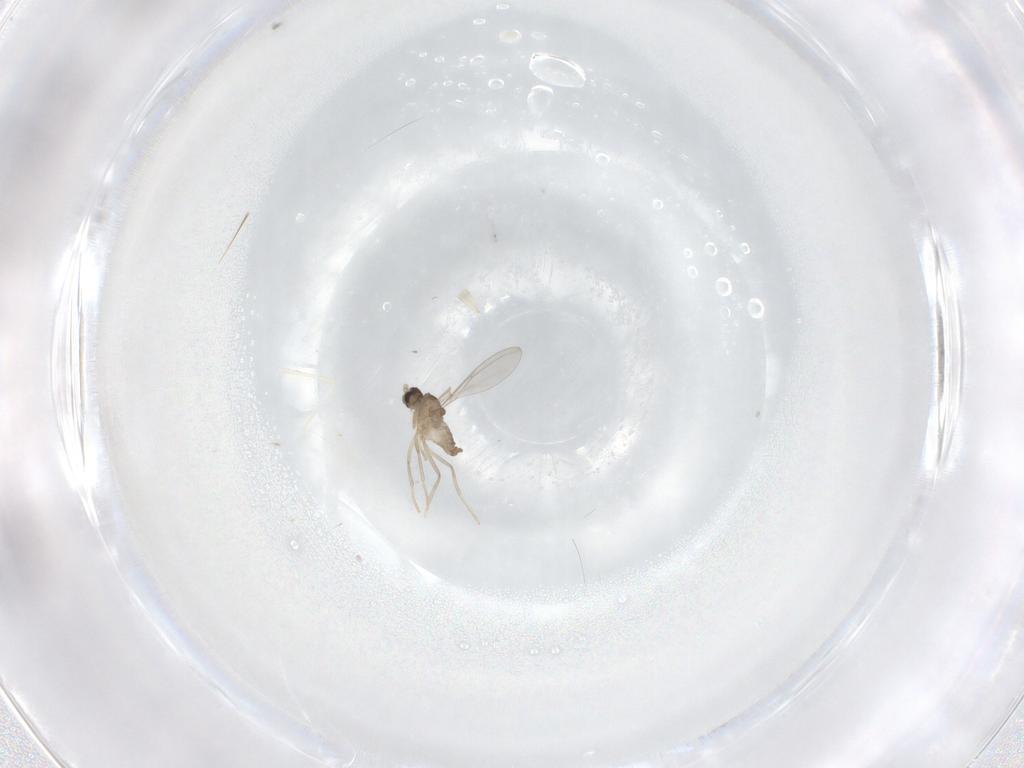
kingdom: Animalia
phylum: Arthropoda
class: Insecta
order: Diptera
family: Cecidomyiidae
